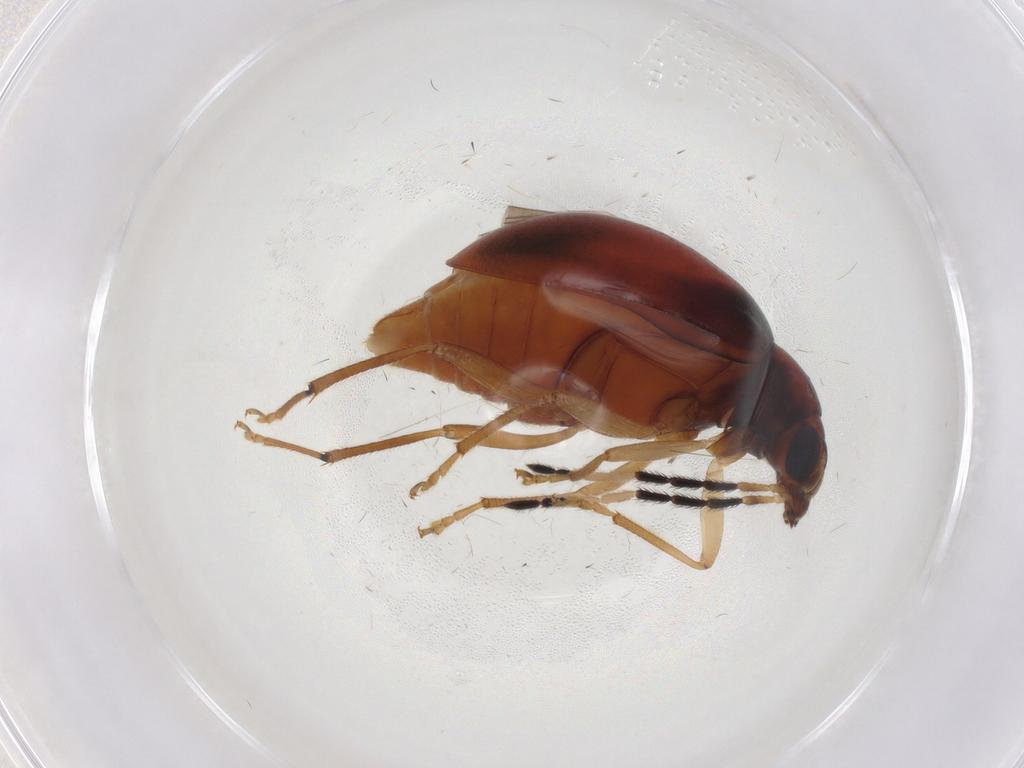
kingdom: Animalia
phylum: Arthropoda
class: Insecta
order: Coleoptera
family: Chrysomelidae
